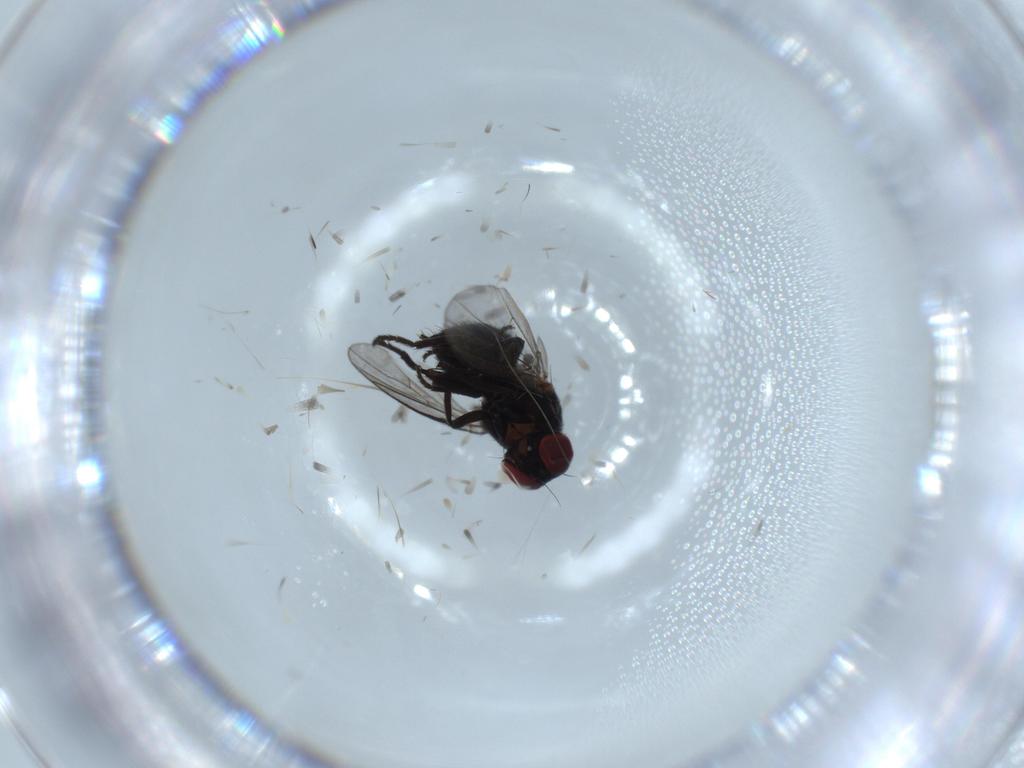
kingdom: Animalia
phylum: Arthropoda
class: Insecta
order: Diptera
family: Agromyzidae
